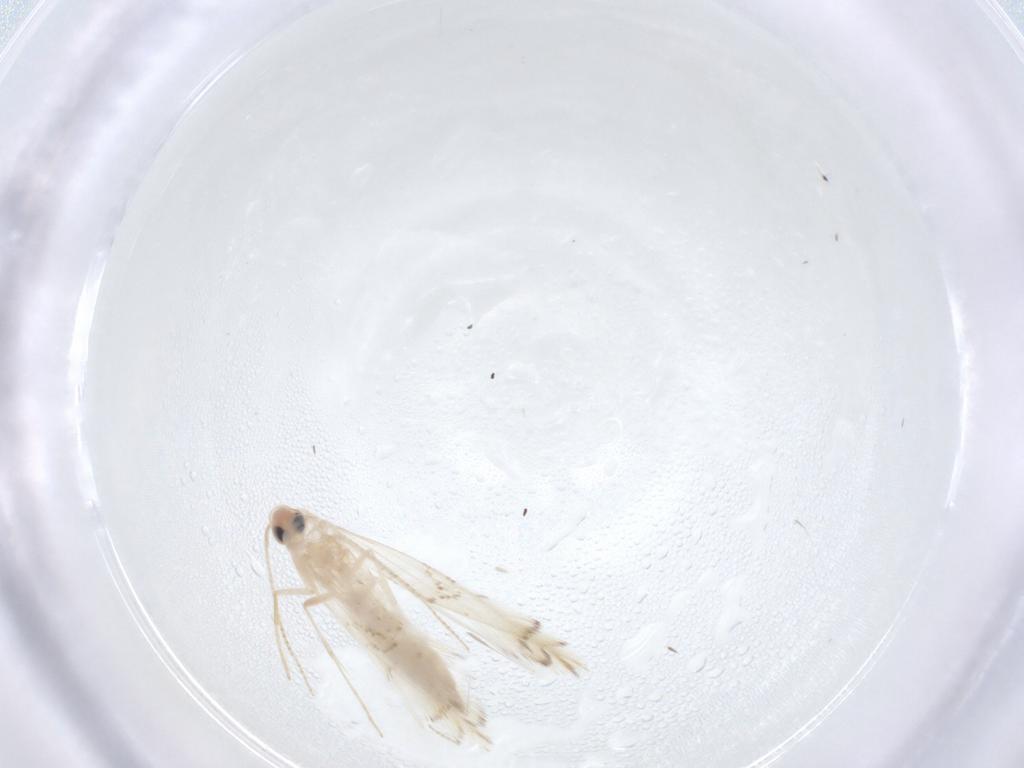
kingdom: Animalia
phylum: Arthropoda
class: Insecta
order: Lepidoptera
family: Gracillariidae
